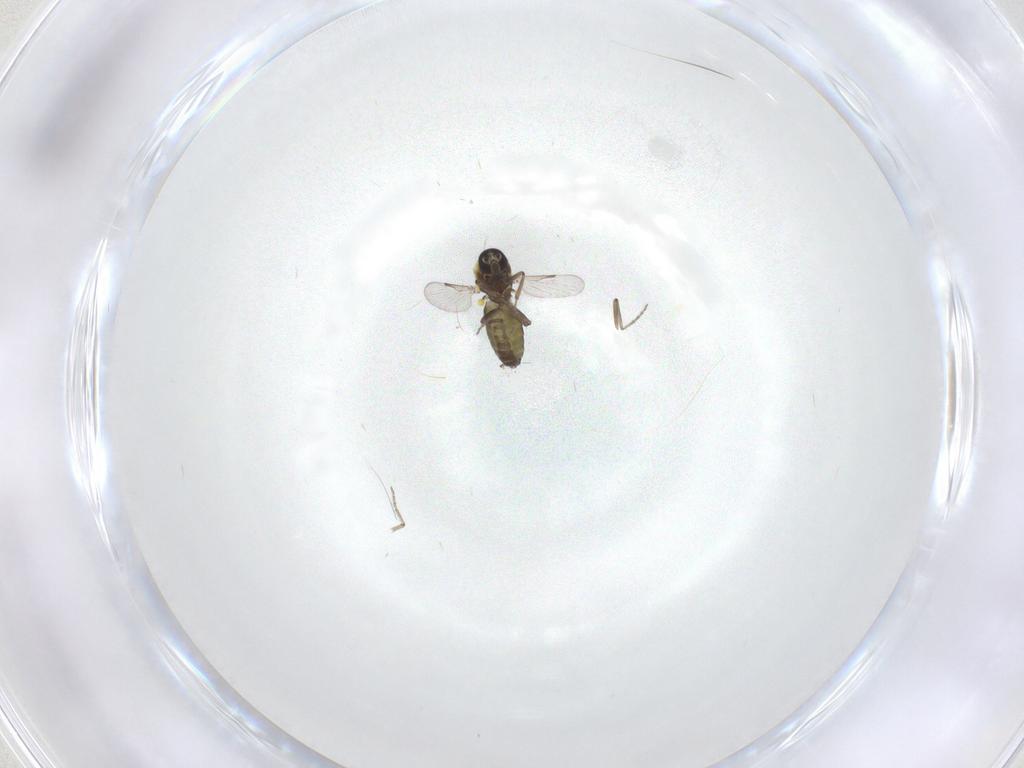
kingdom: Animalia
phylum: Arthropoda
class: Insecta
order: Diptera
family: Ceratopogonidae
